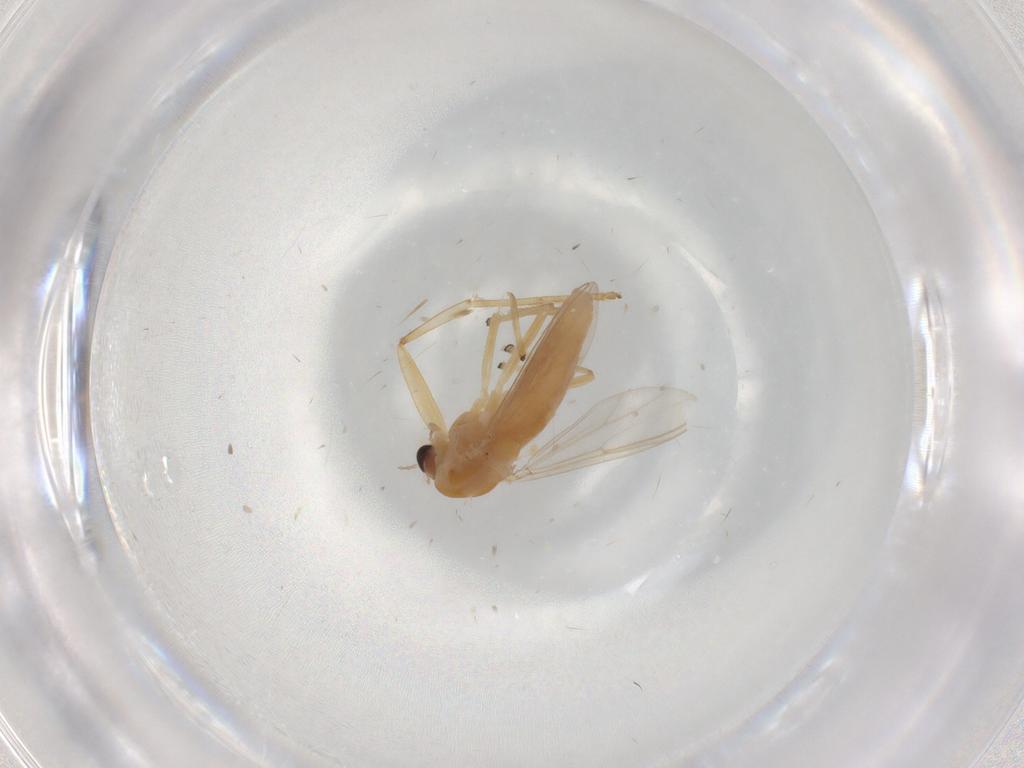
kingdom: Animalia
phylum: Arthropoda
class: Insecta
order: Diptera
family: Chironomidae
